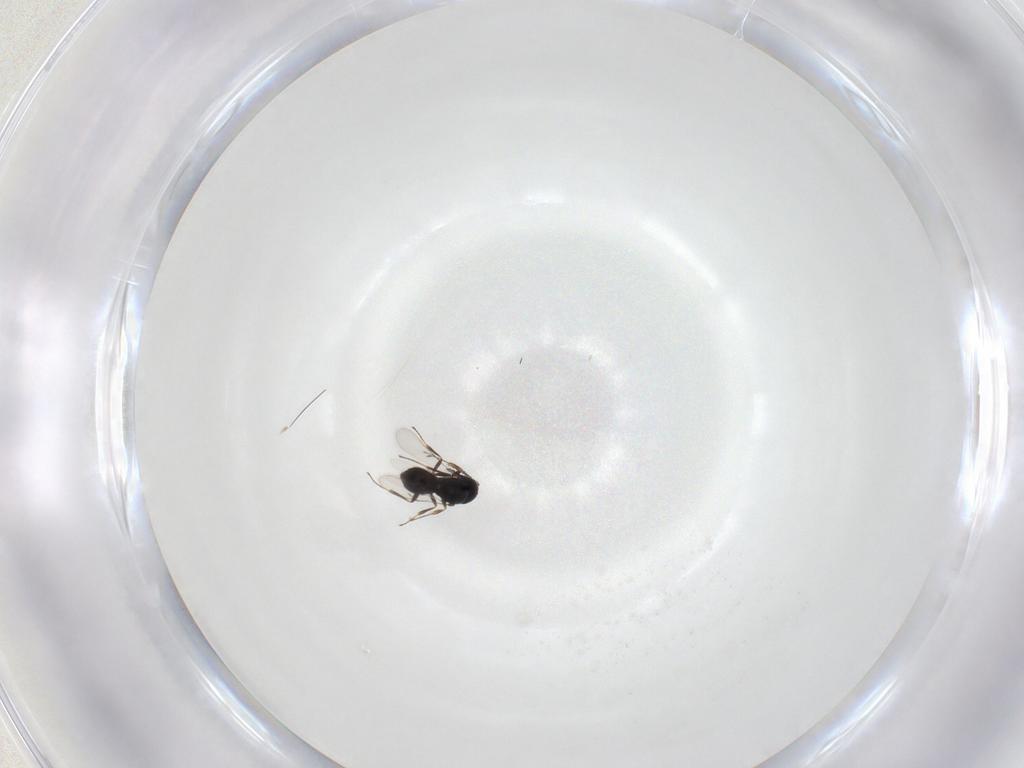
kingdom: Animalia
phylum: Arthropoda
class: Insecta
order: Hymenoptera
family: Scelionidae
